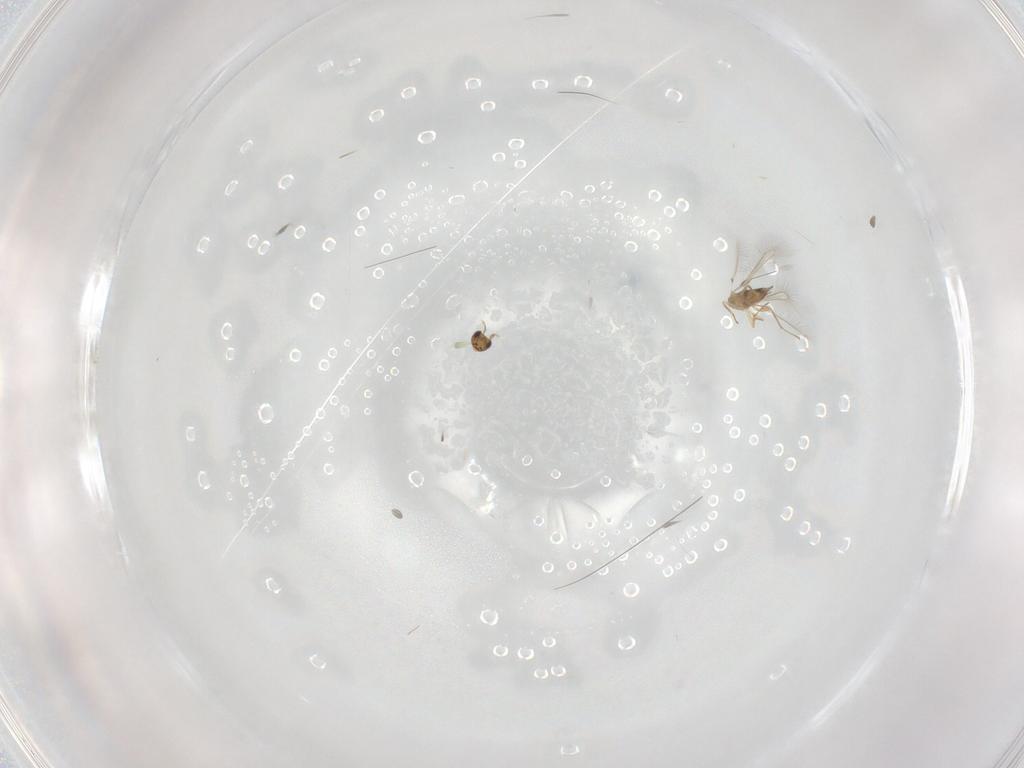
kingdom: Animalia
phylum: Arthropoda
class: Insecta
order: Hymenoptera
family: Mymaridae
